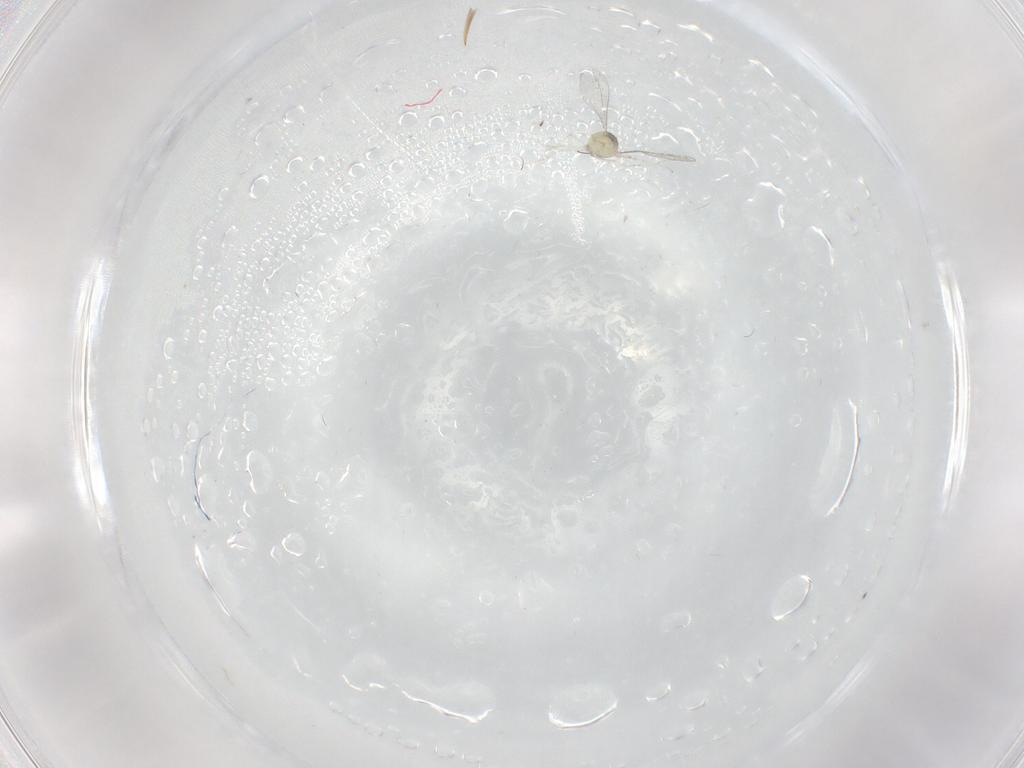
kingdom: Animalia
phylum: Arthropoda
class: Insecta
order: Diptera
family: Cecidomyiidae
